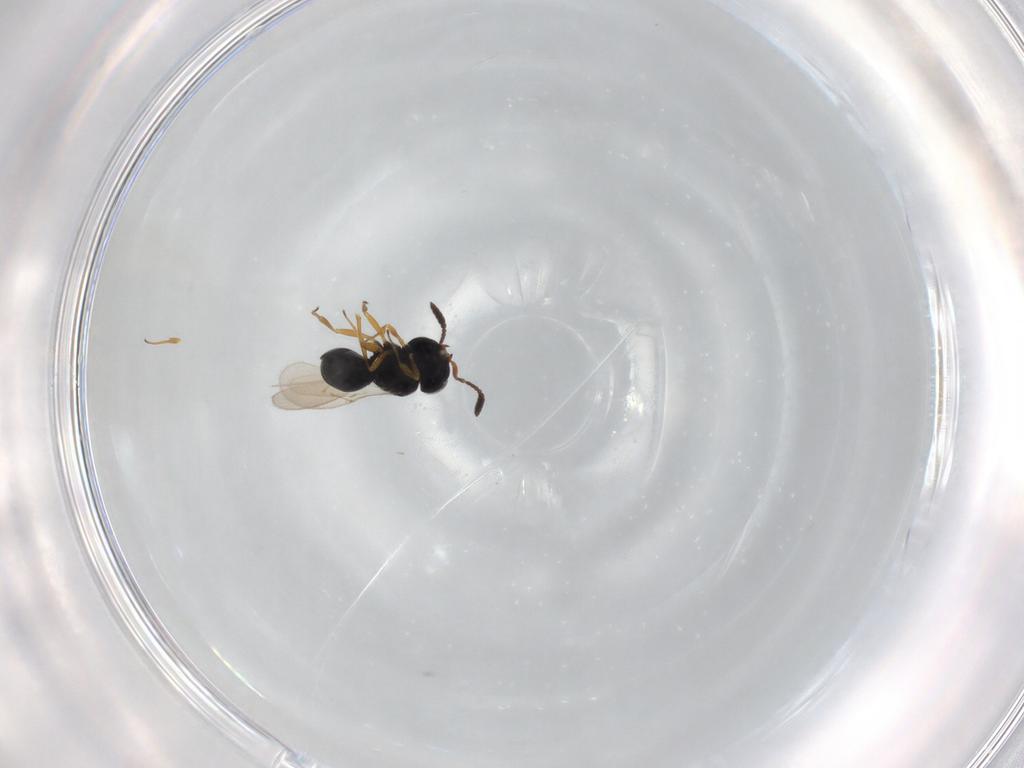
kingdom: Animalia
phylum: Arthropoda
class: Insecta
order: Hymenoptera
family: Scelionidae
